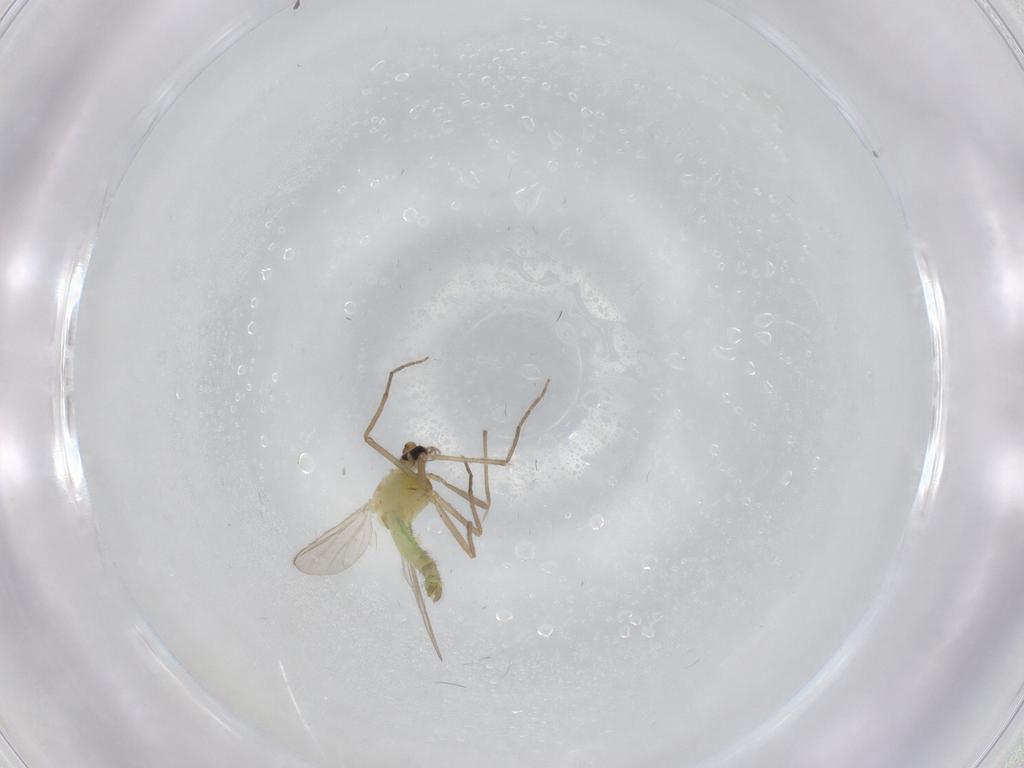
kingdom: Animalia
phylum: Arthropoda
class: Insecta
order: Diptera
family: Chironomidae
